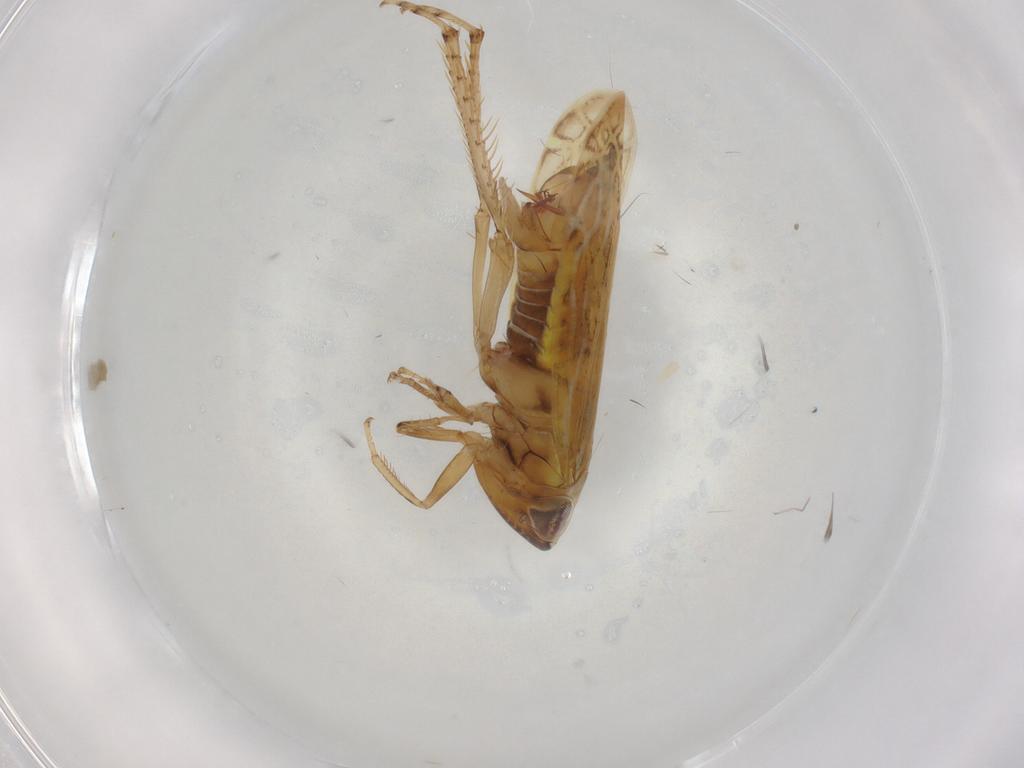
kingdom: Animalia
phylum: Arthropoda
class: Insecta
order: Hemiptera
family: Cicadellidae
